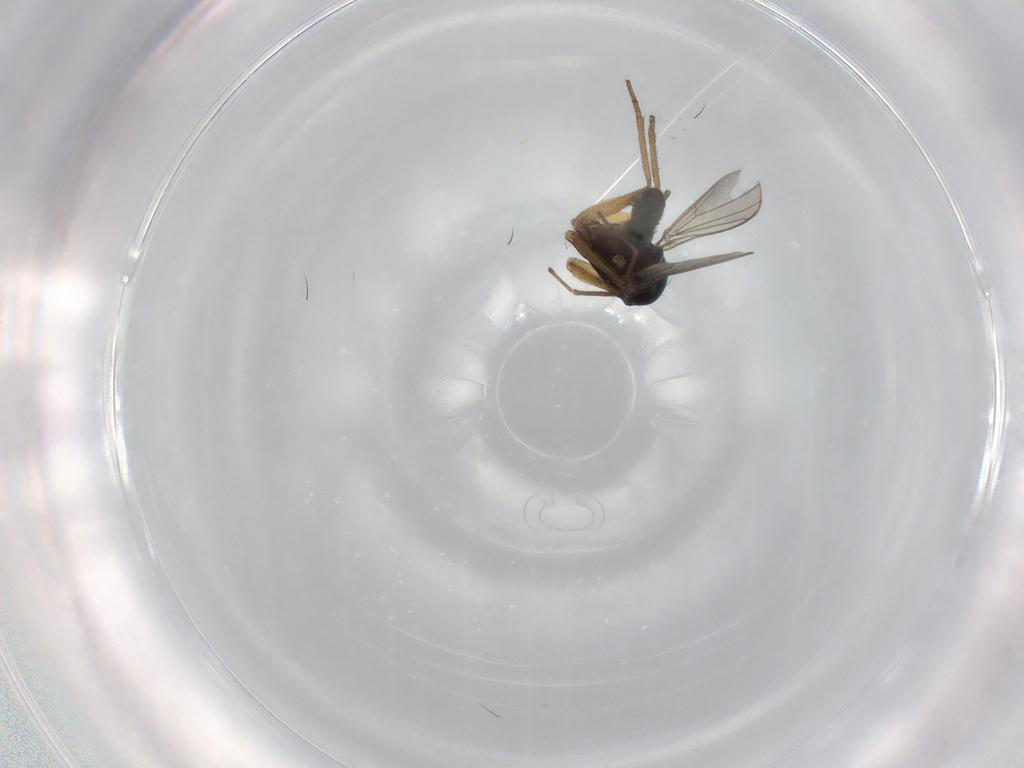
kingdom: Animalia
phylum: Arthropoda
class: Insecta
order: Diptera
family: Dolichopodidae
